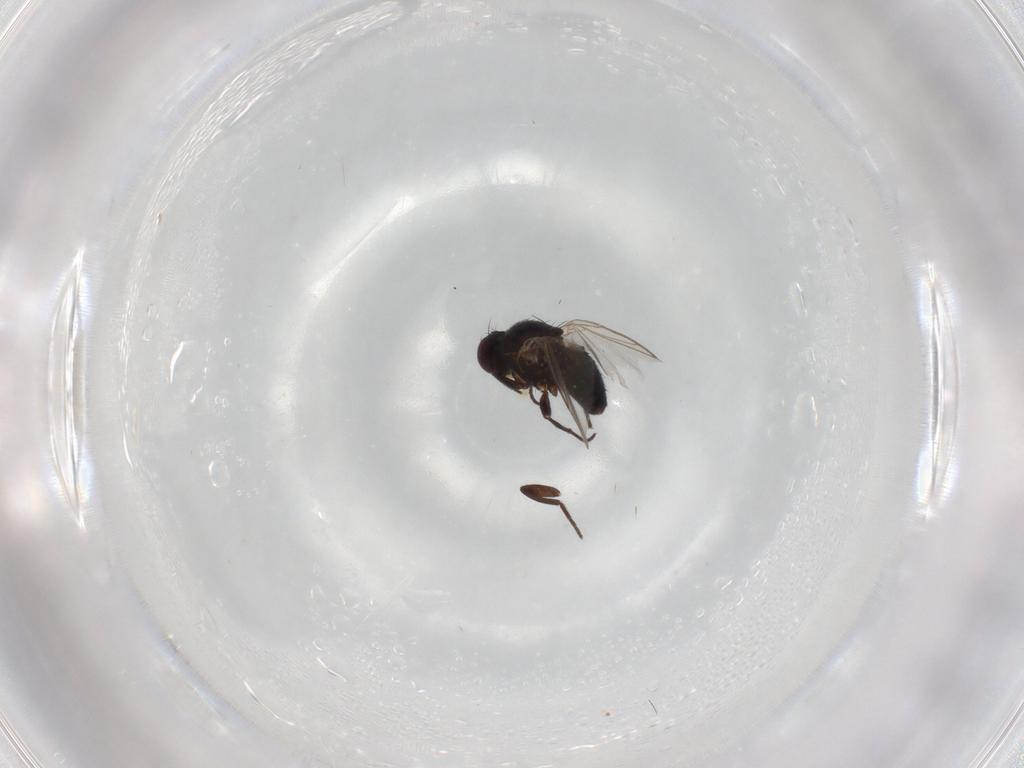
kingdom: Animalia
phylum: Arthropoda
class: Insecta
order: Diptera
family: Agromyzidae
